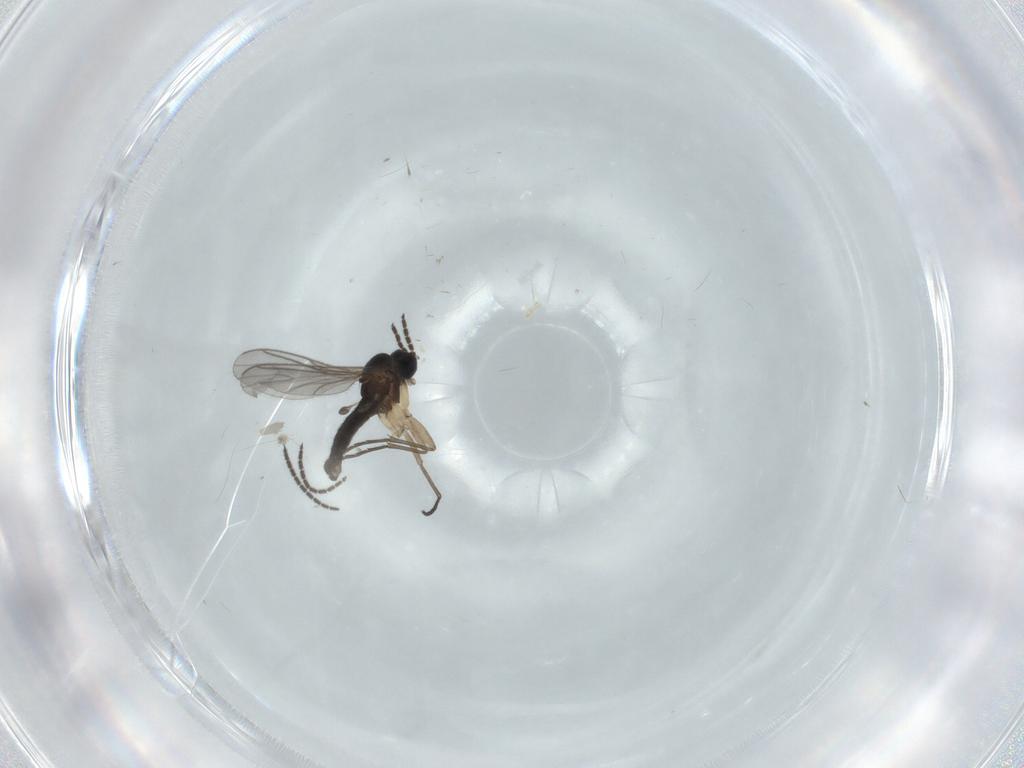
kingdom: Animalia
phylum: Arthropoda
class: Insecta
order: Diptera
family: Sciaridae
